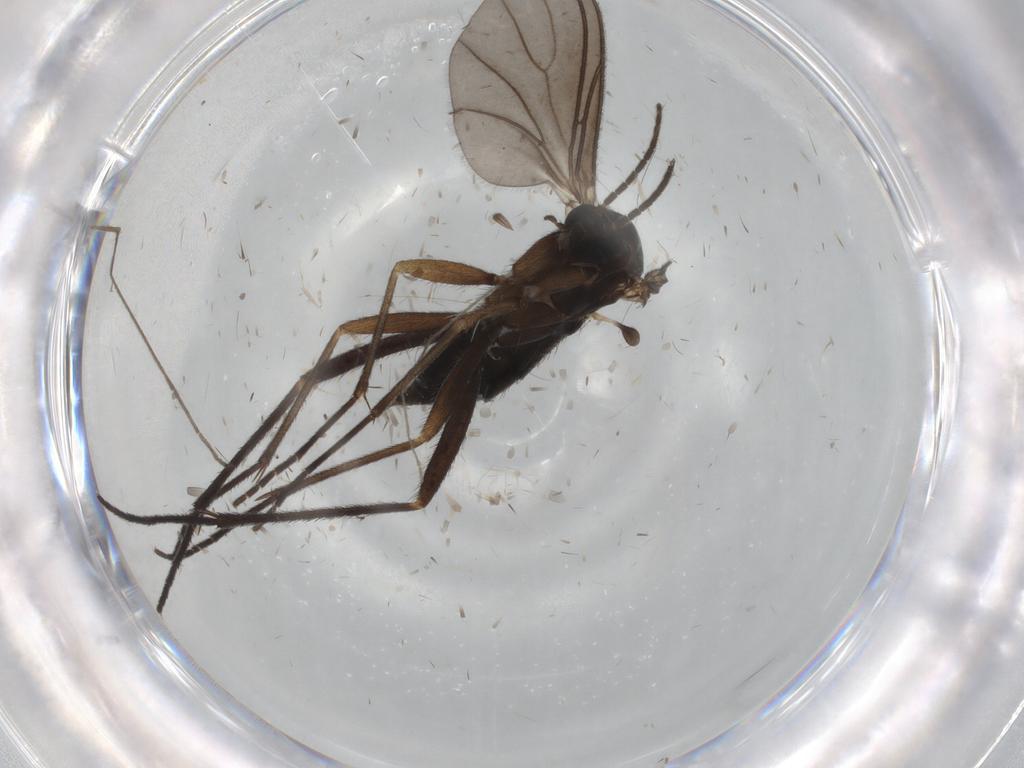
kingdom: Animalia
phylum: Arthropoda
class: Insecta
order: Diptera
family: Sciaridae
